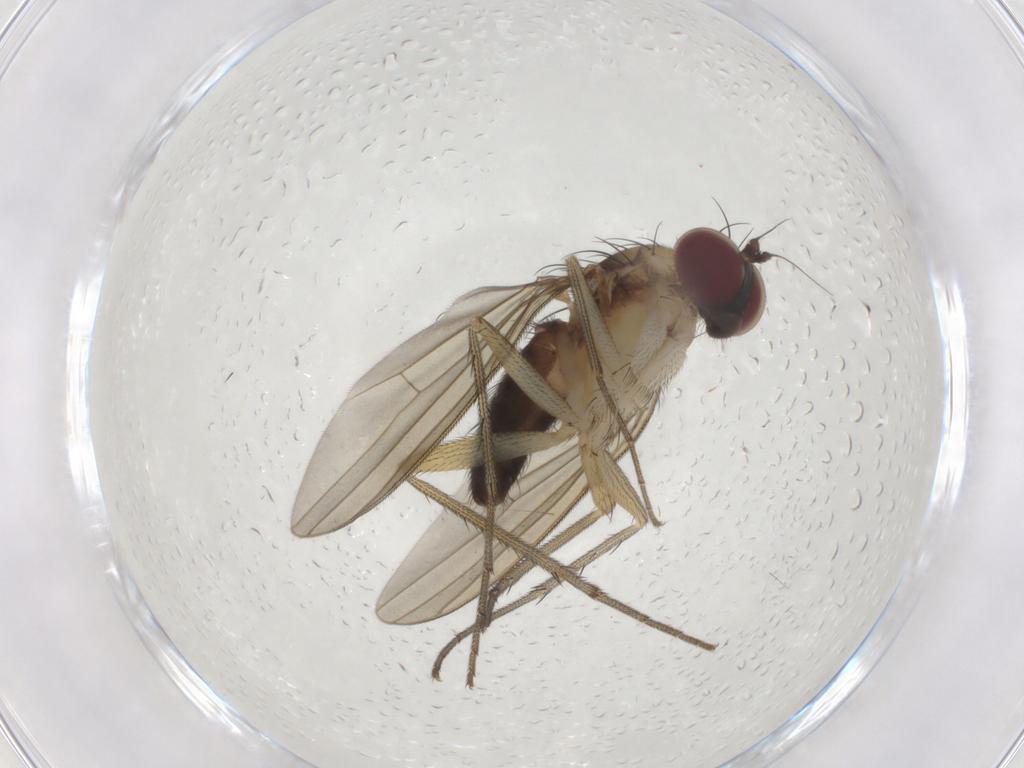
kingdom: Animalia
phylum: Arthropoda
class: Insecta
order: Diptera
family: Dolichopodidae
